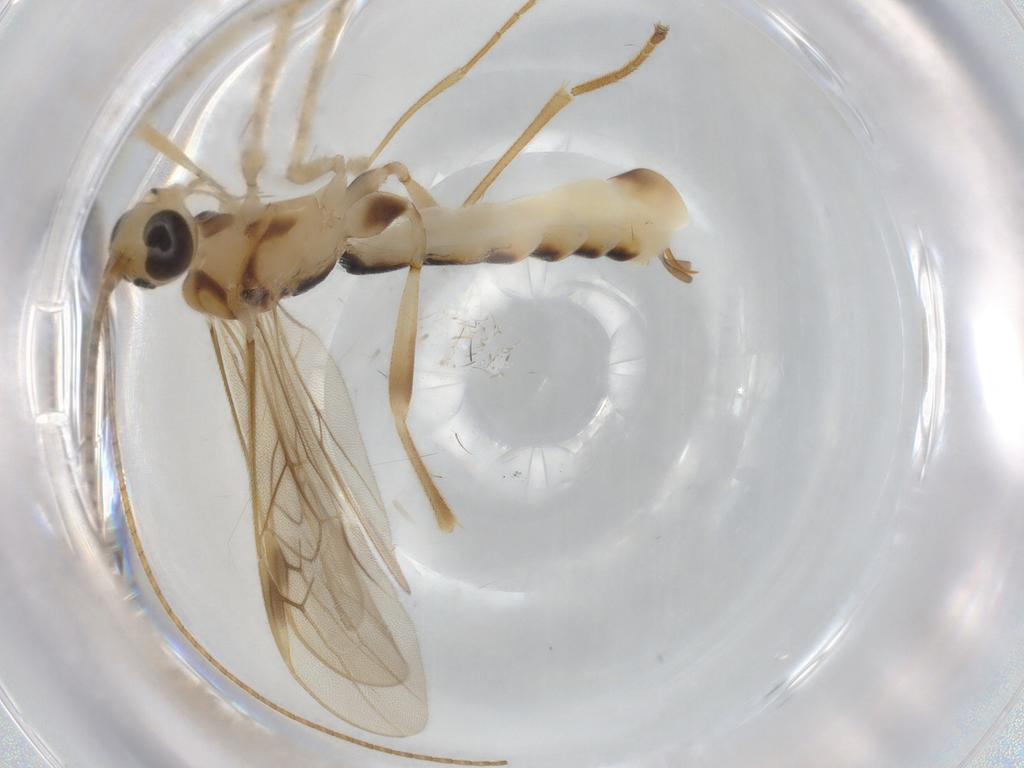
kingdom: Animalia
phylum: Arthropoda
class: Insecta
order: Hymenoptera
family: Braconidae
